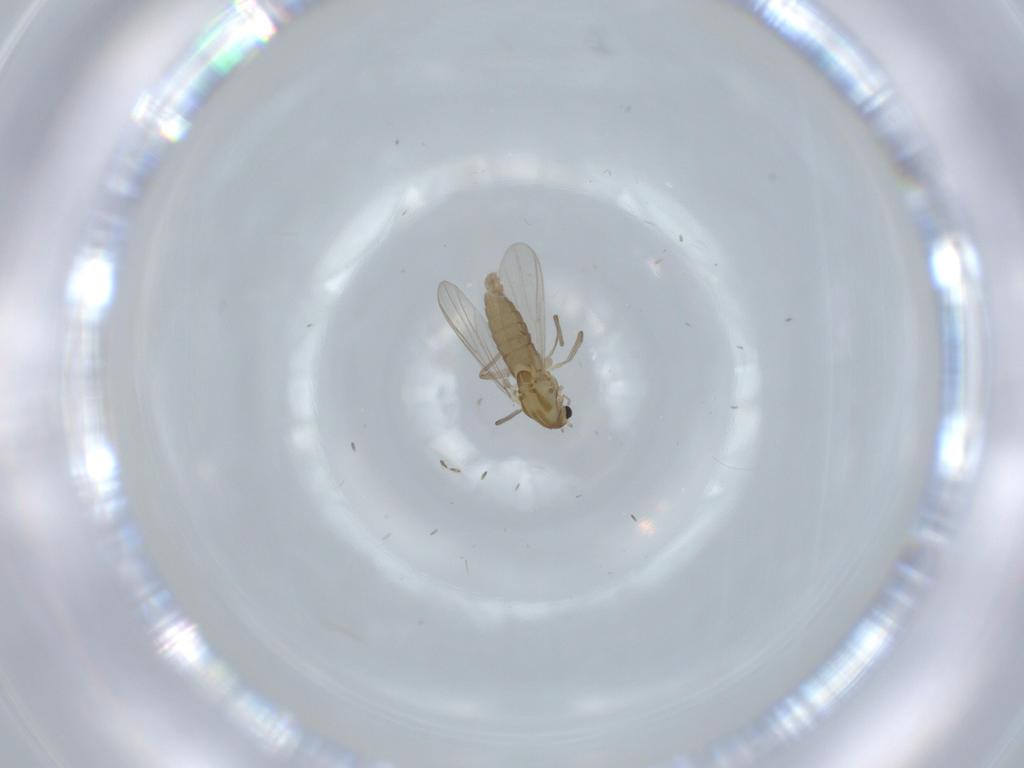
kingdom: Animalia
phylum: Arthropoda
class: Insecta
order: Diptera
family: Chironomidae
